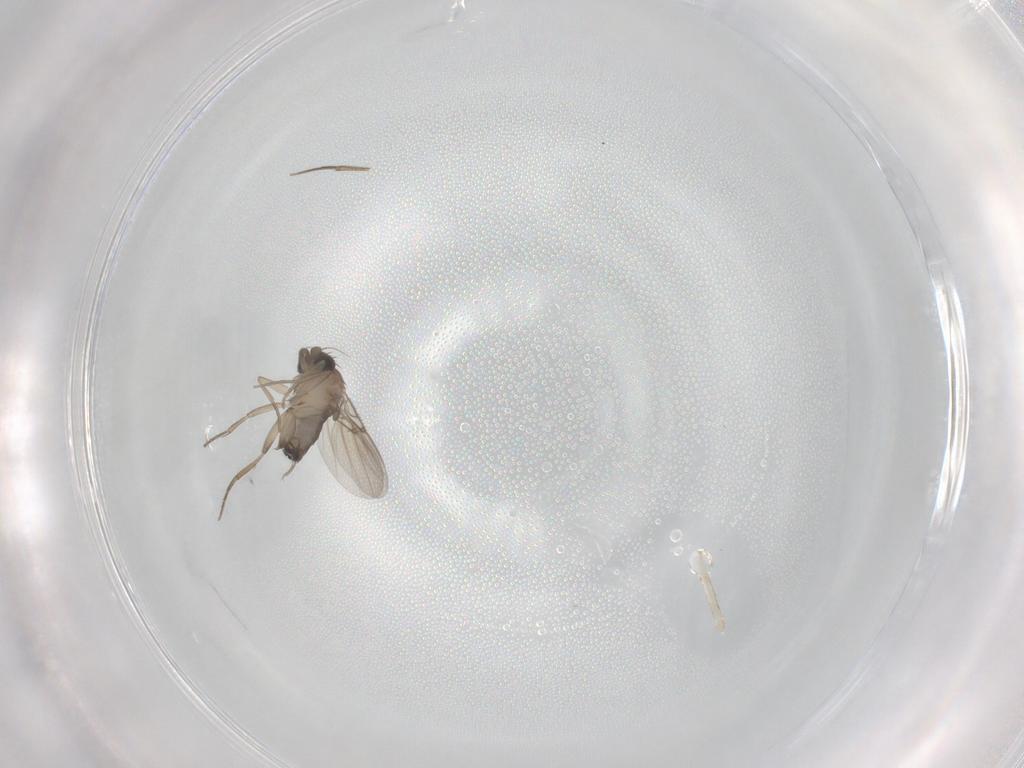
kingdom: Animalia
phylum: Arthropoda
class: Insecta
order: Diptera
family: Phoridae
